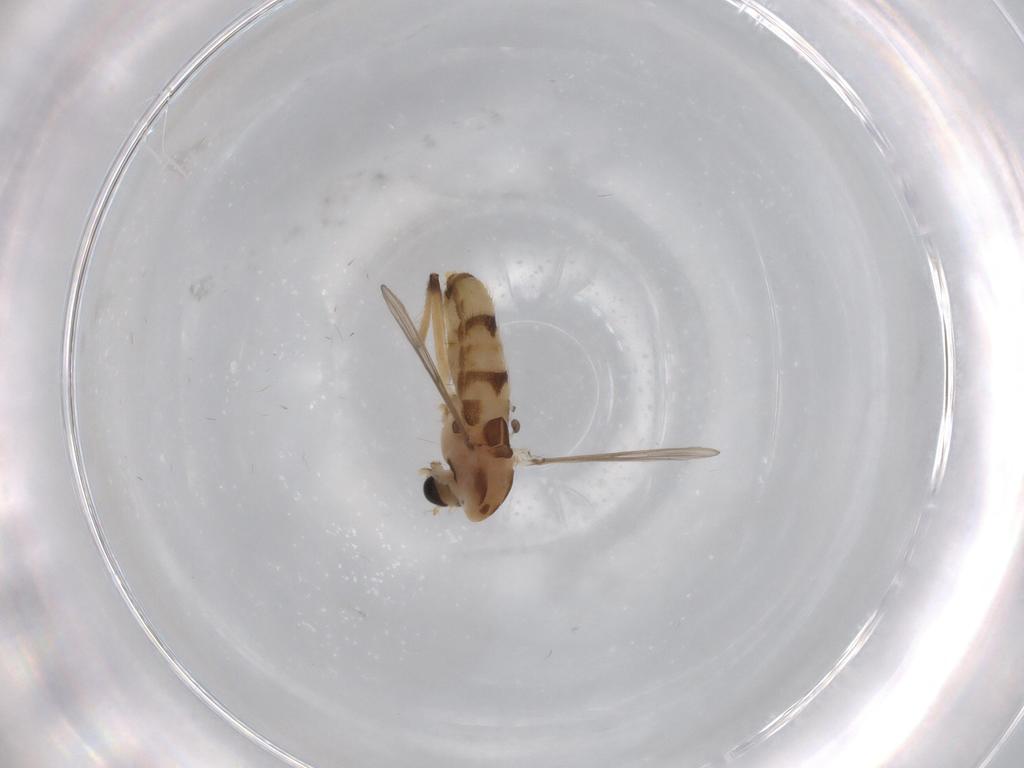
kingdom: Animalia
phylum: Arthropoda
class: Insecta
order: Diptera
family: Chironomidae
